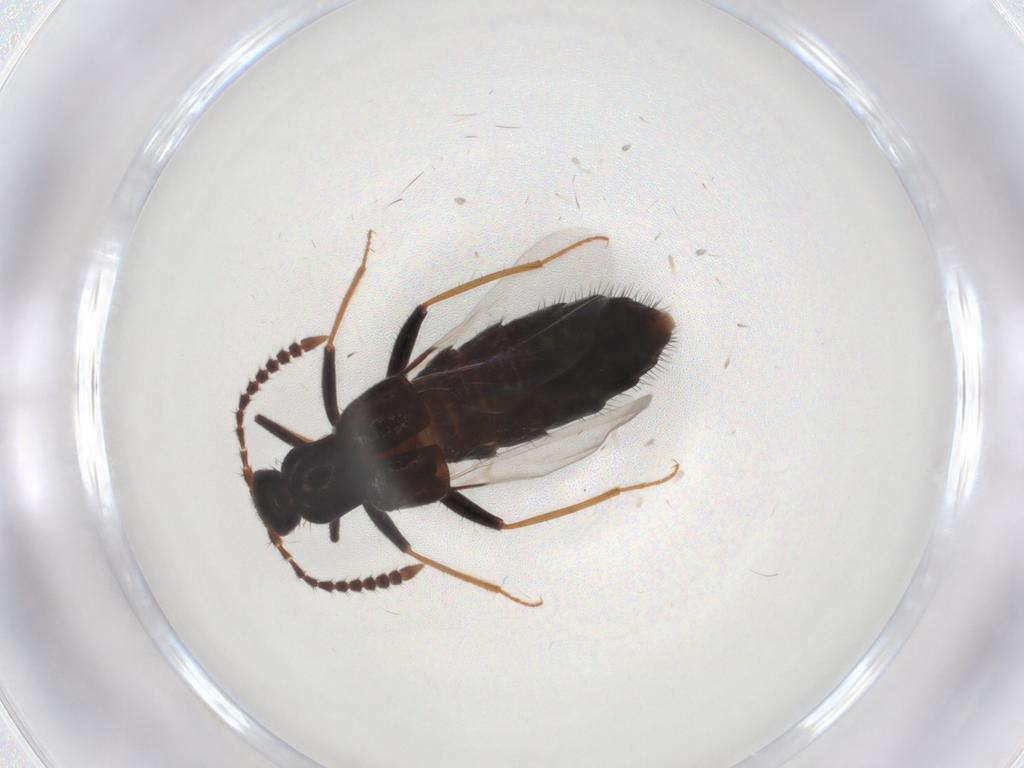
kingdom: Animalia
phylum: Arthropoda
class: Insecta
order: Coleoptera
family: Staphylinidae
